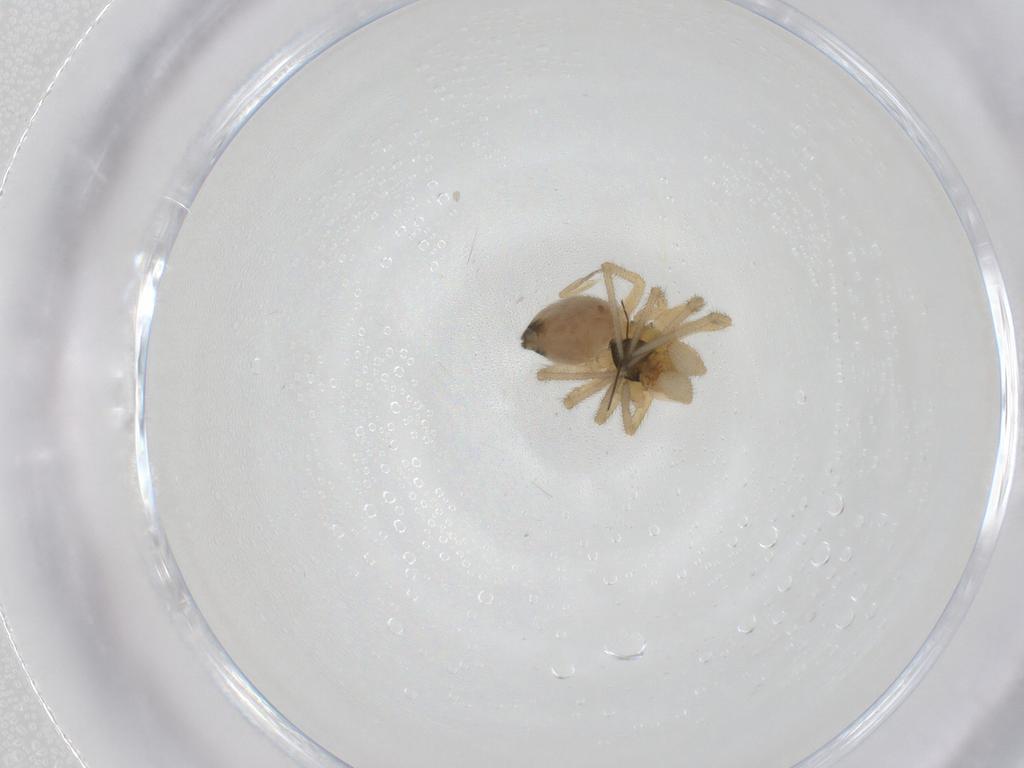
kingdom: Animalia
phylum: Arthropoda
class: Arachnida
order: Araneae
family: Linyphiidae
